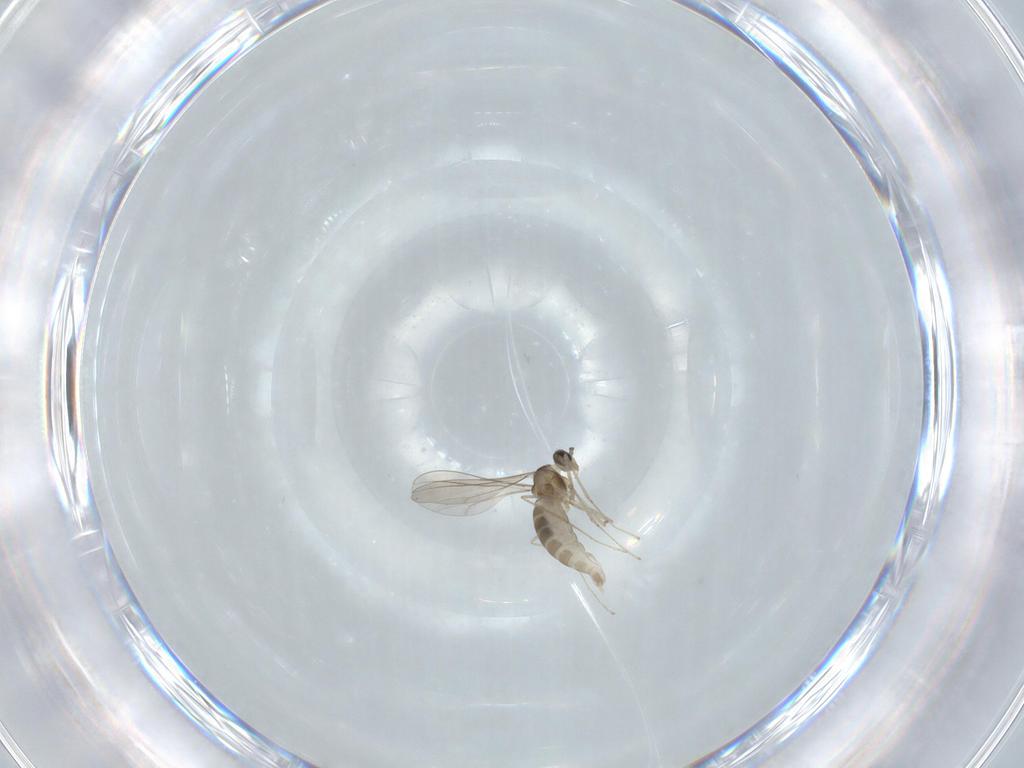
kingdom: Animalia
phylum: Arthropoda
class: Insecta
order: Diptera
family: Cecidomyiidae
